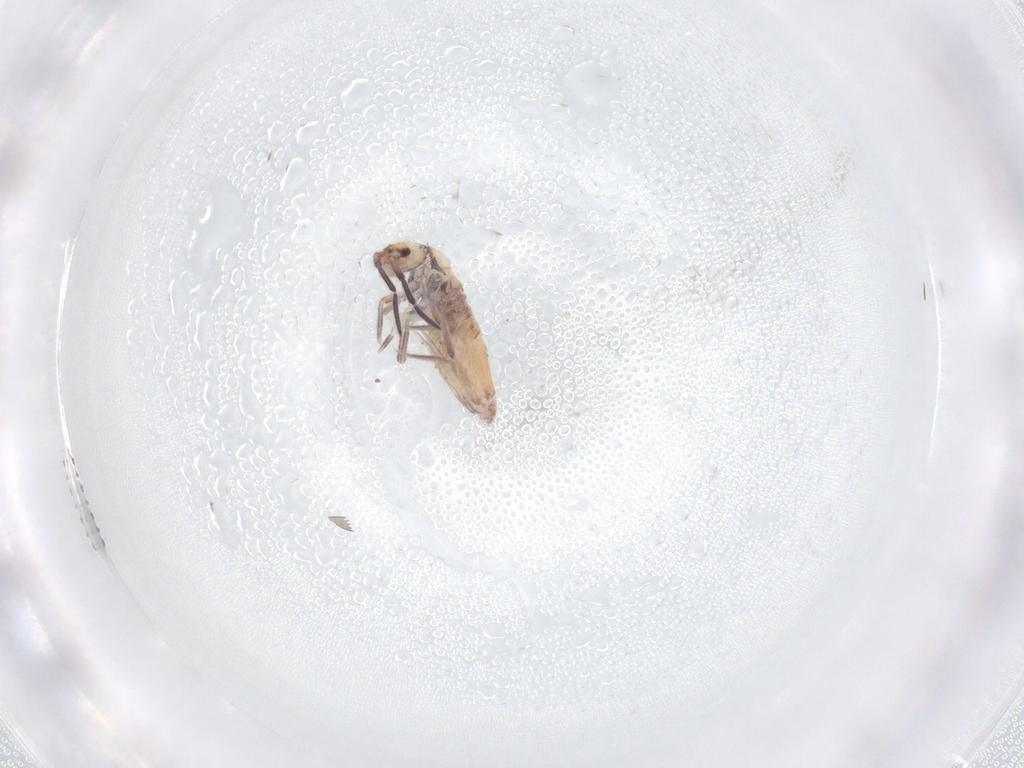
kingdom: Animalia
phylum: Arthropoda
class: Collembola
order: Entomobryomorpha
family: Entomobryidae
